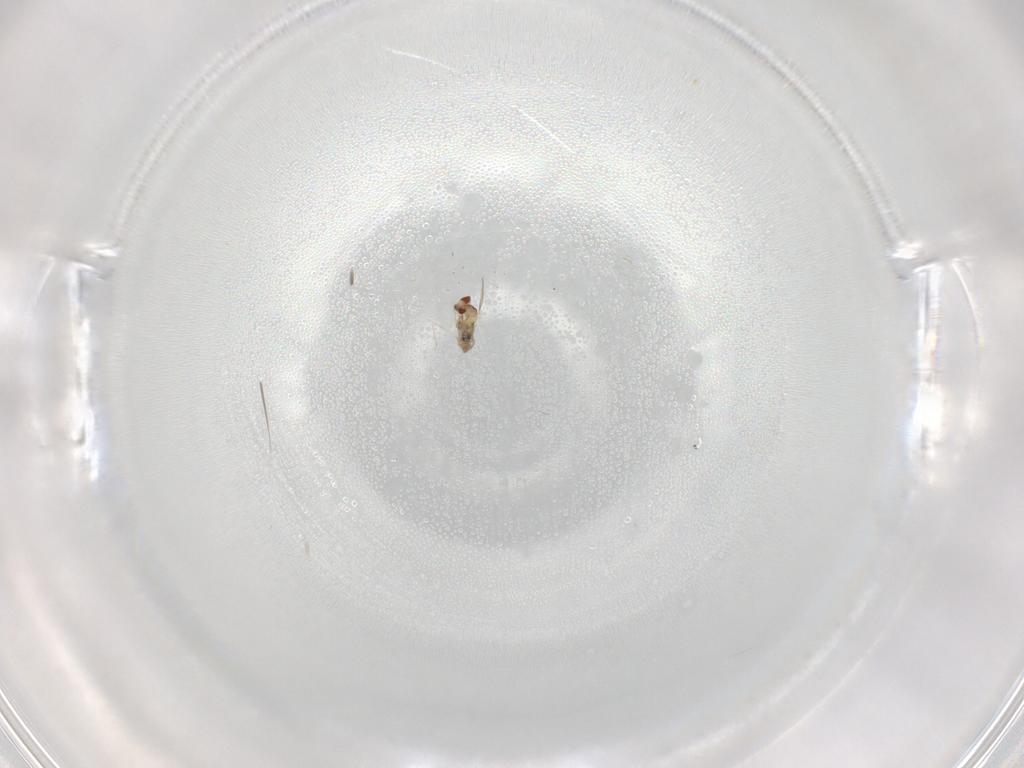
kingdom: Animalia
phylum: Arthropoda
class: Insecta
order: Diptera
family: Cecidomyiidae
